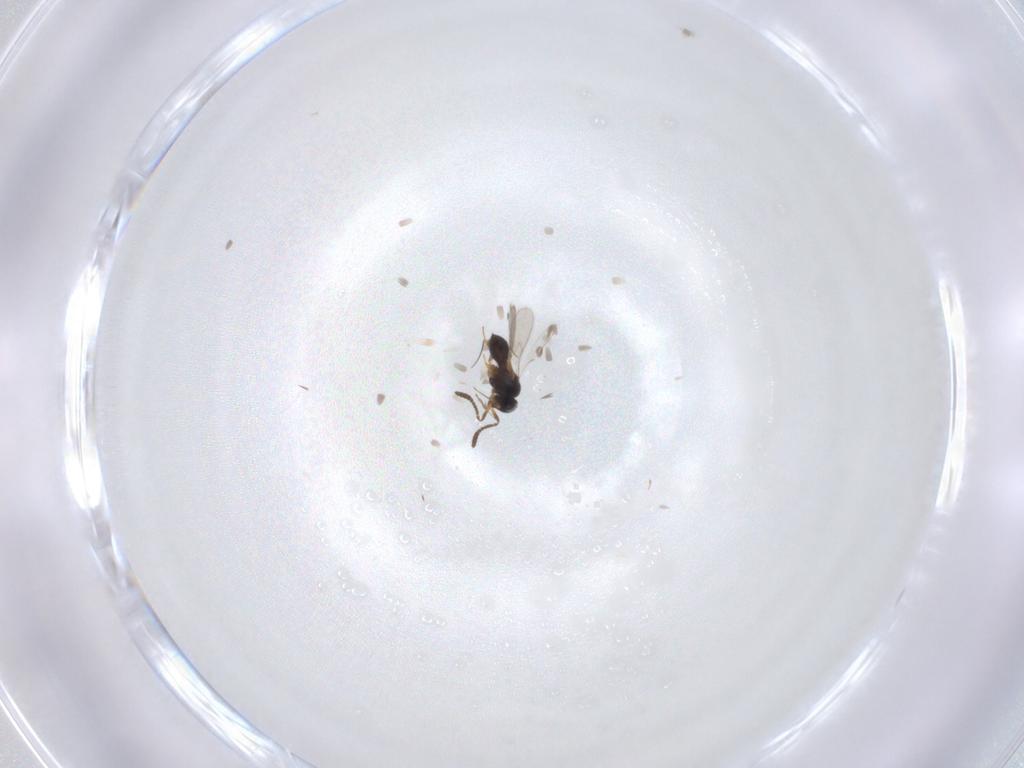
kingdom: Animalia
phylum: Arthropoda
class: Insecta
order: Hymenoptera
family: Scelionidae
